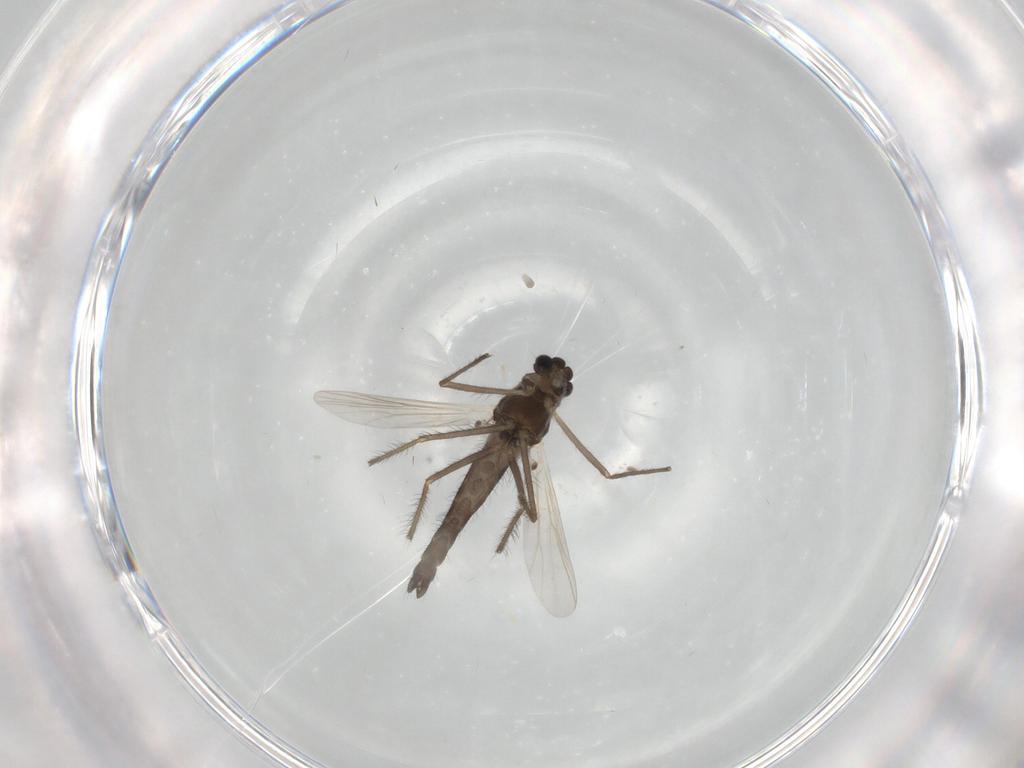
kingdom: Animalia
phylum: Arthropoda
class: Insecta
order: Diptera
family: Chironomidae
